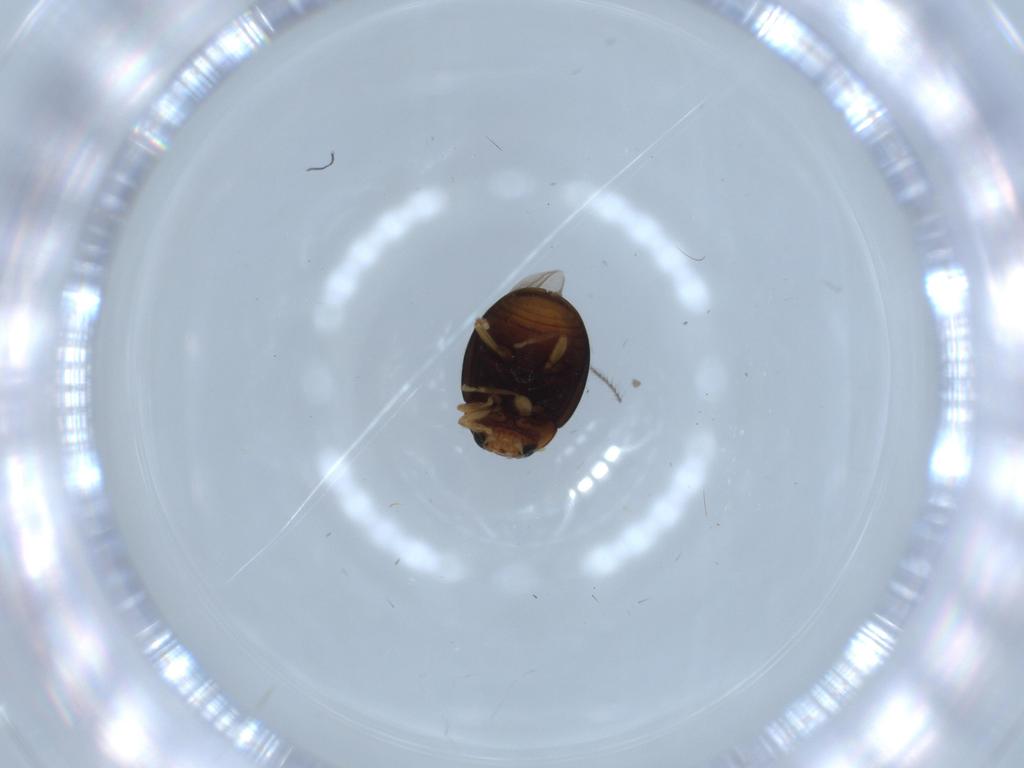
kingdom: Animalia
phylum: Arthropoda
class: Insecta
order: Coleoptera
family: Coccinellidae
